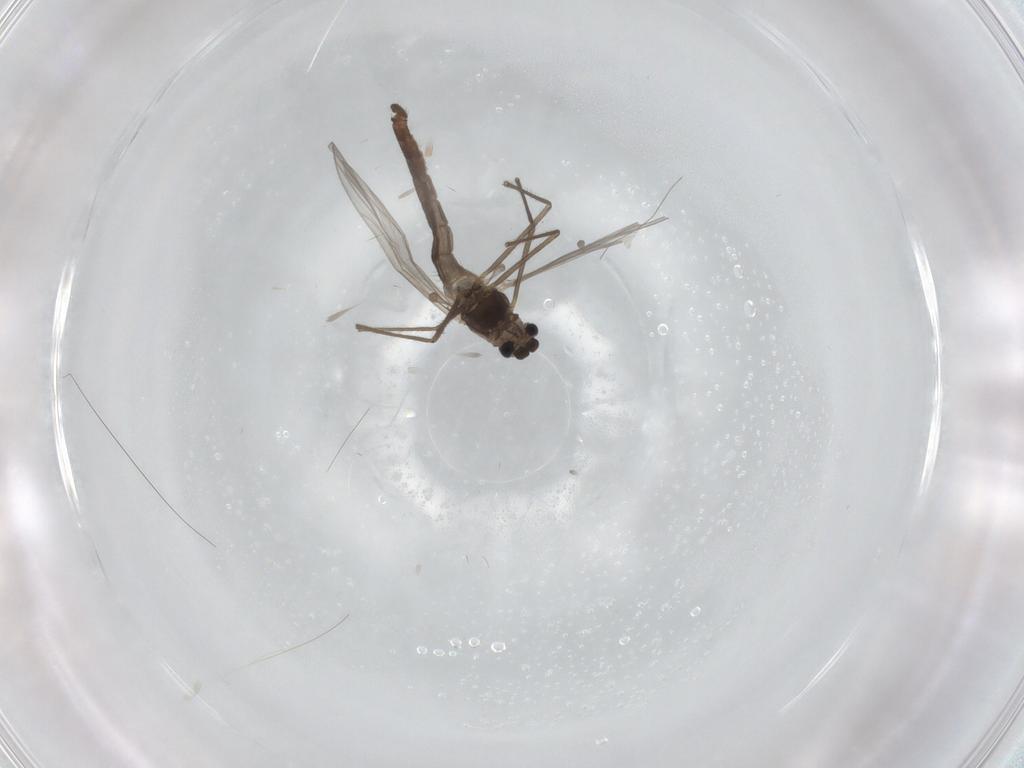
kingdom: Animalia
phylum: Arthropoda
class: Insecta
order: Diptera
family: Chironomidae
